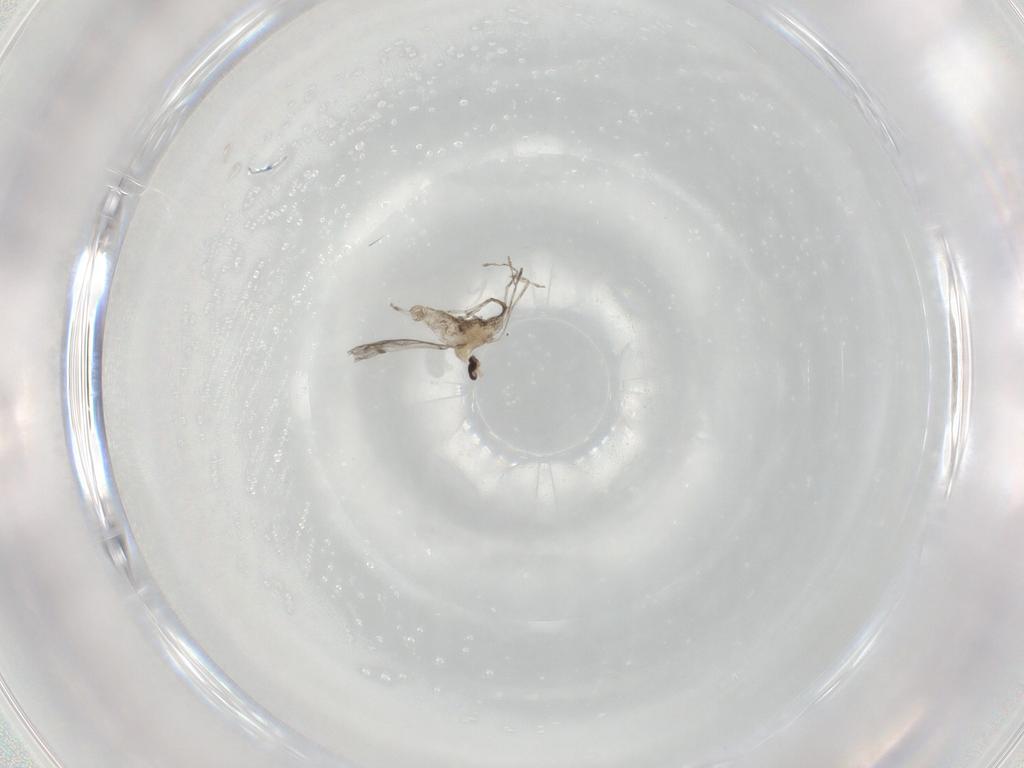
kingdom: Animalia
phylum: Arthropoda
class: Insecta
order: Diptera
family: Cecidomyiidae
